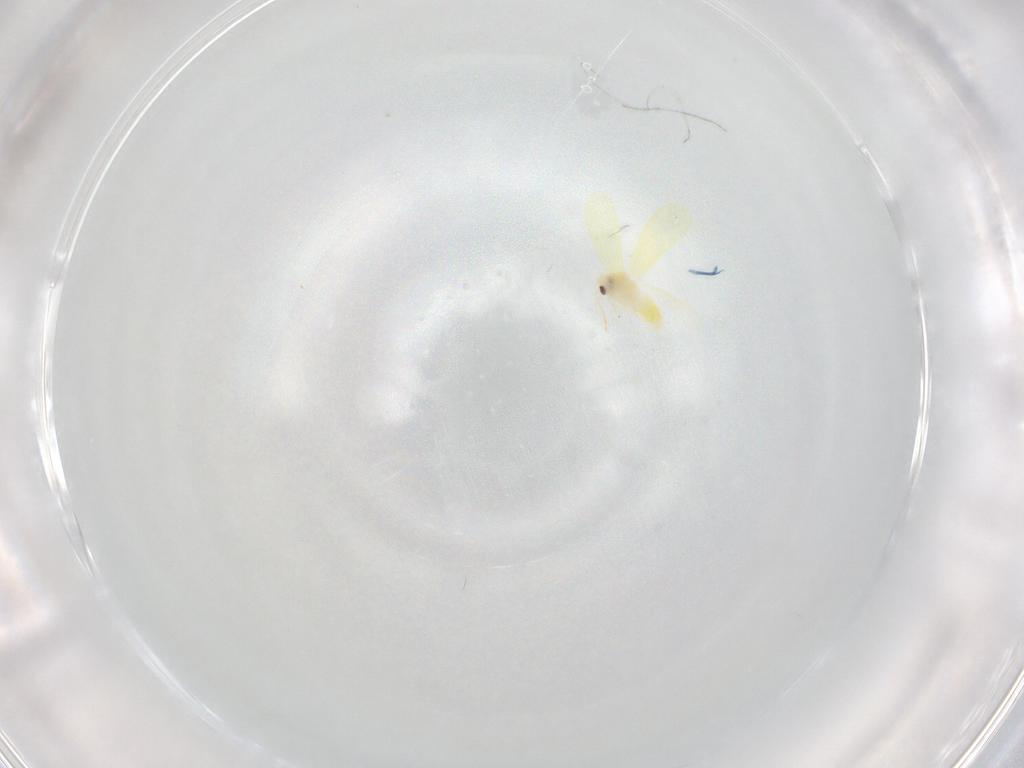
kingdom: Animalia
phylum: Arthropoda
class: Insecta
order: Hemiptera
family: Aleyrodidae
